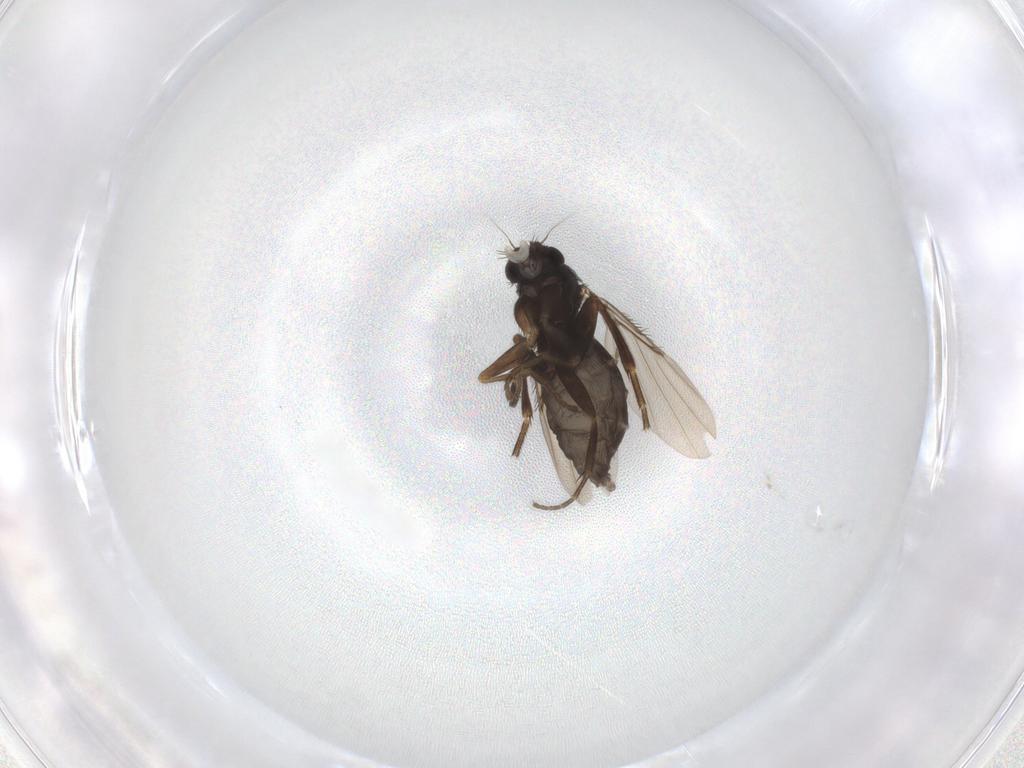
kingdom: Animalia
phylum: Arthropoda
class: Insecta
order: Diptera
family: Phoridae
